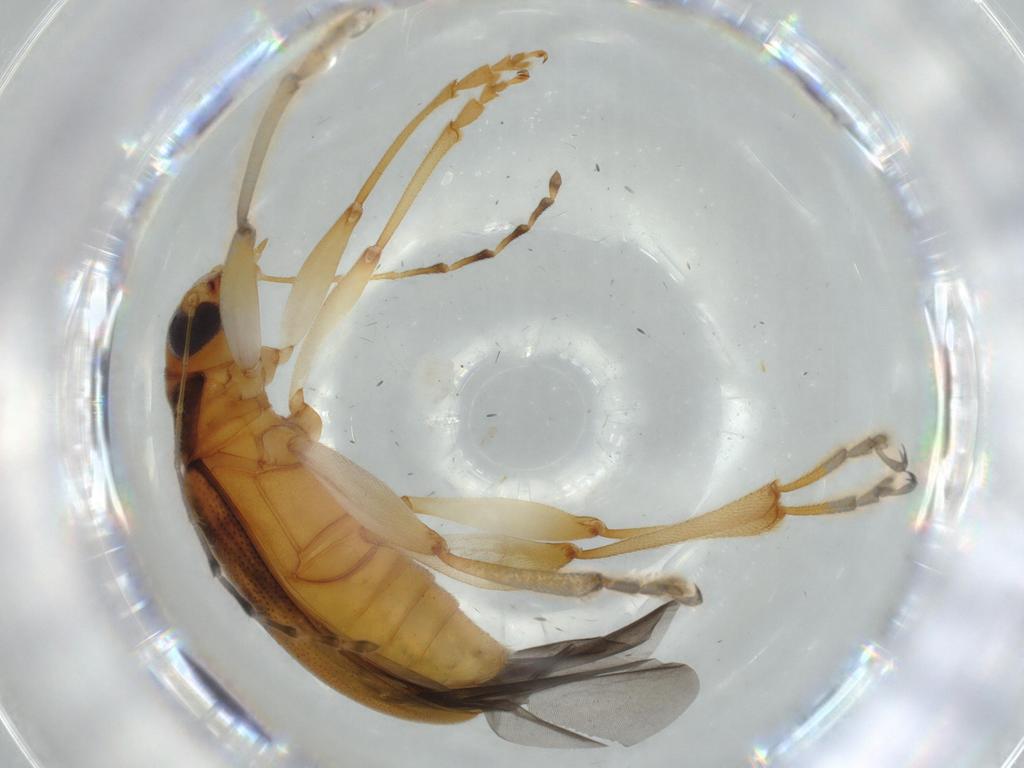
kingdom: Animalia
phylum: Arthropoda
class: Insecta
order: Coleoptera
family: Chrysomelidae
